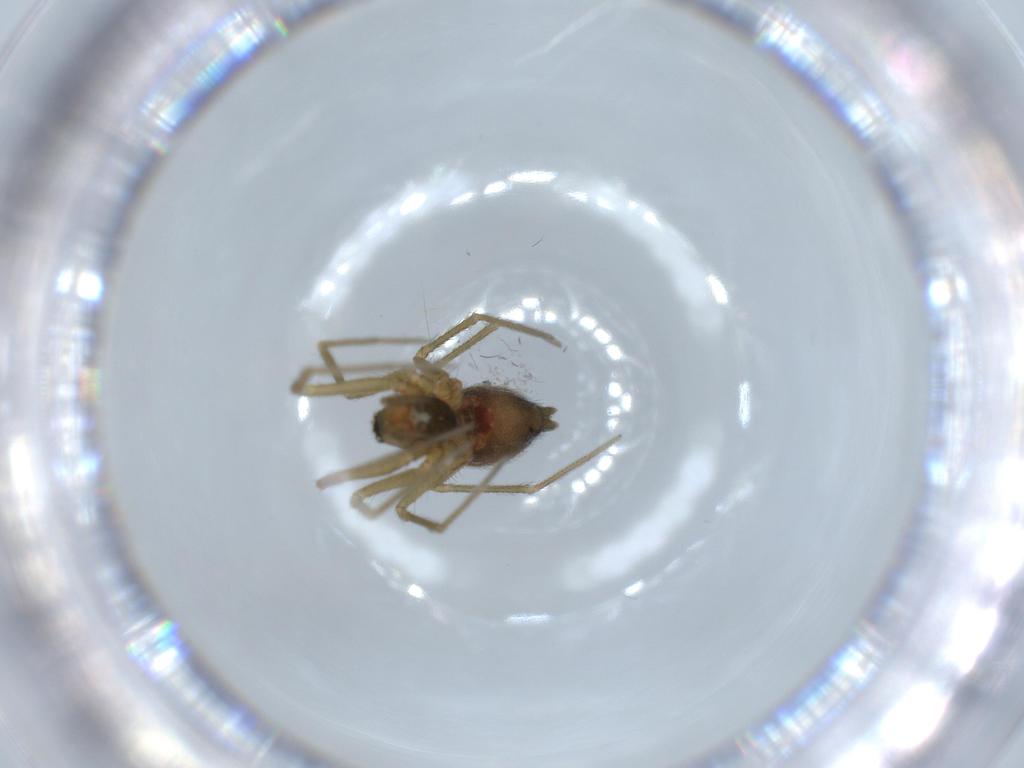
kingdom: Animalia
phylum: Arthropoda
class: Arachnida
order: Araneae
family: Linyphiidae
